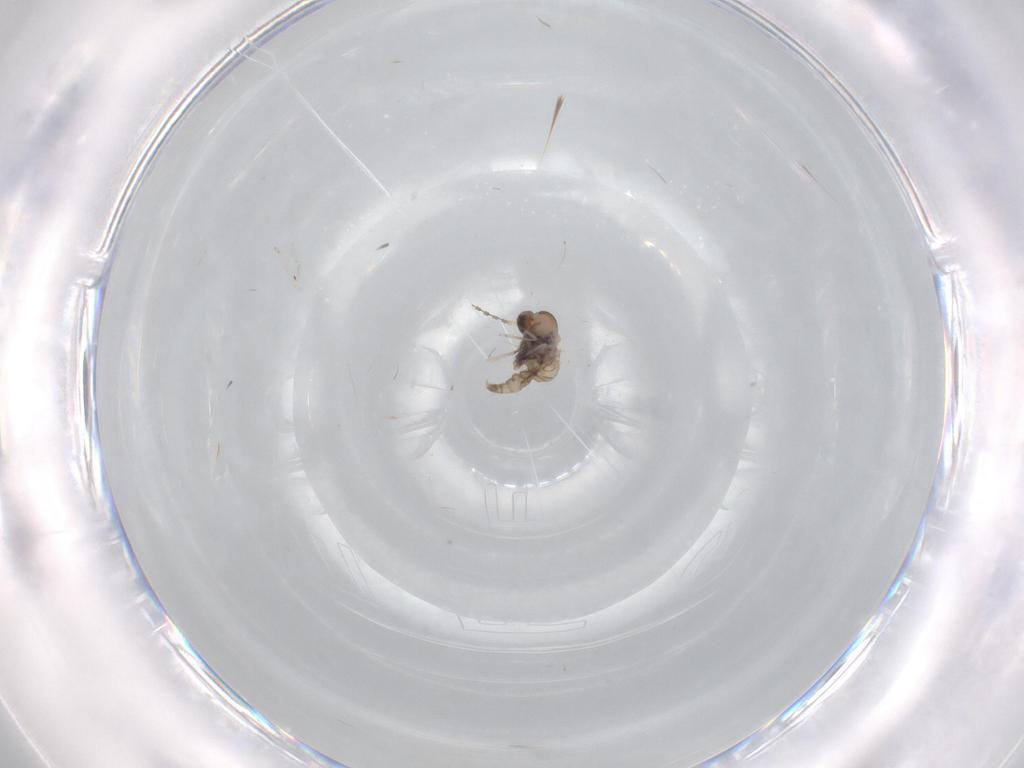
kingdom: Animalia
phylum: Arthropoda
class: Insecta
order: Diptera
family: Cecidomyiidae
